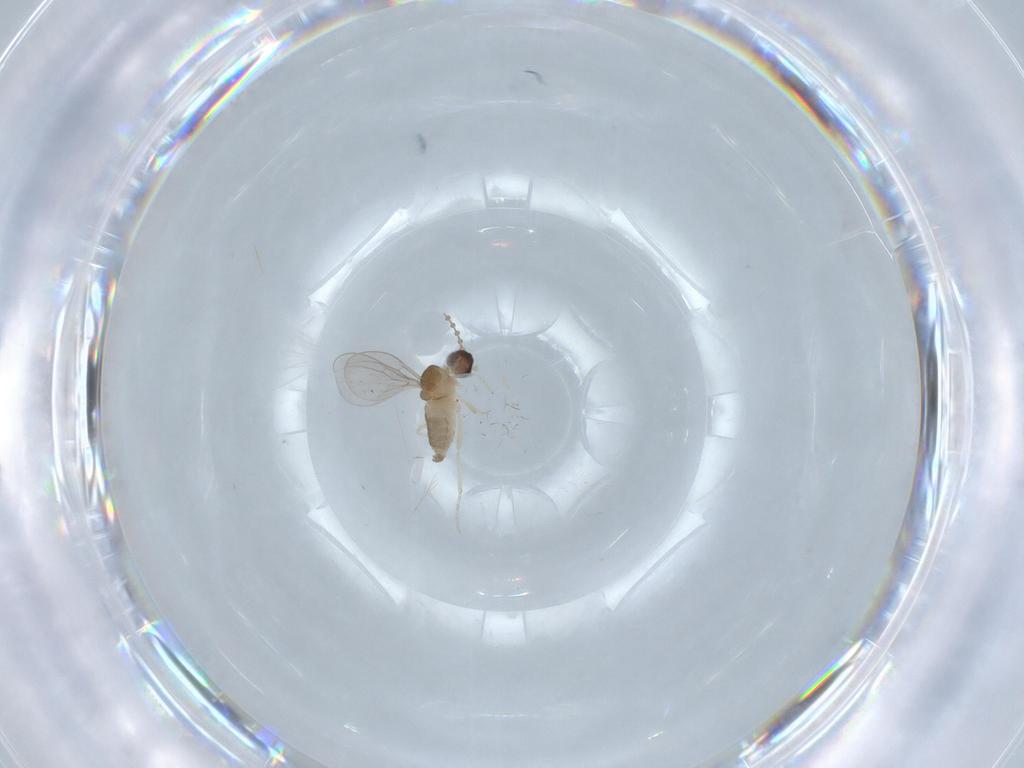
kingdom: Animalia
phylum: Arthropoda
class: Insecta
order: Diptera
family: Cecidomyiidae
